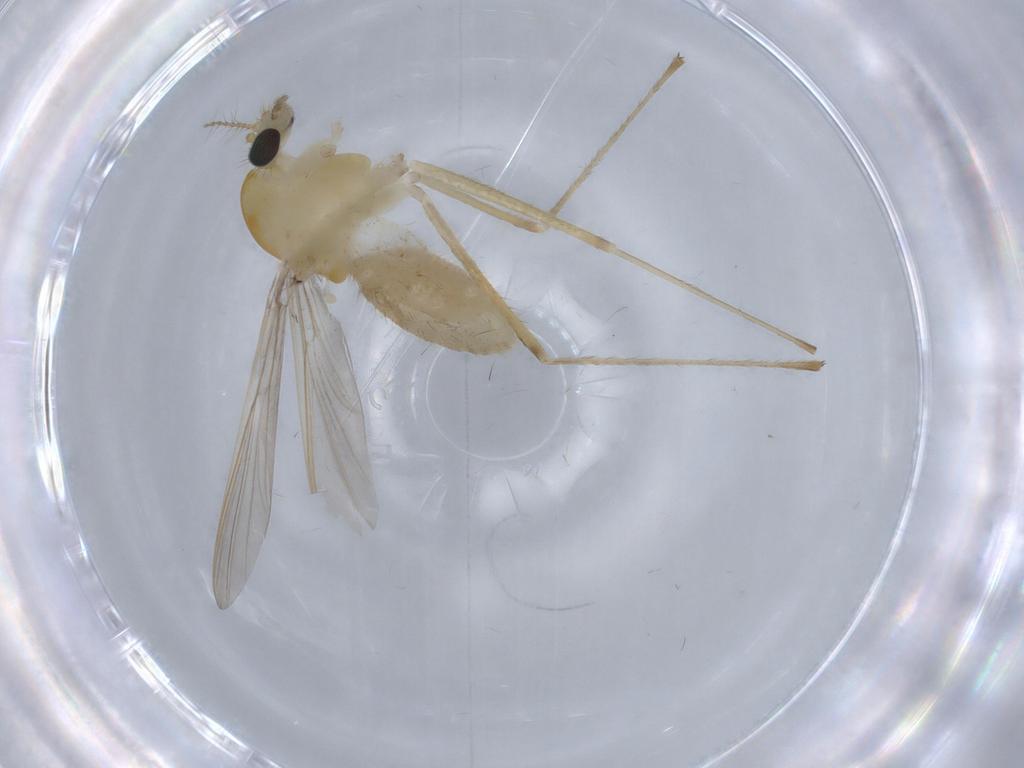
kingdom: Animalia
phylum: Arthropoda
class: Insecta
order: Diptera
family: Chironomidae
